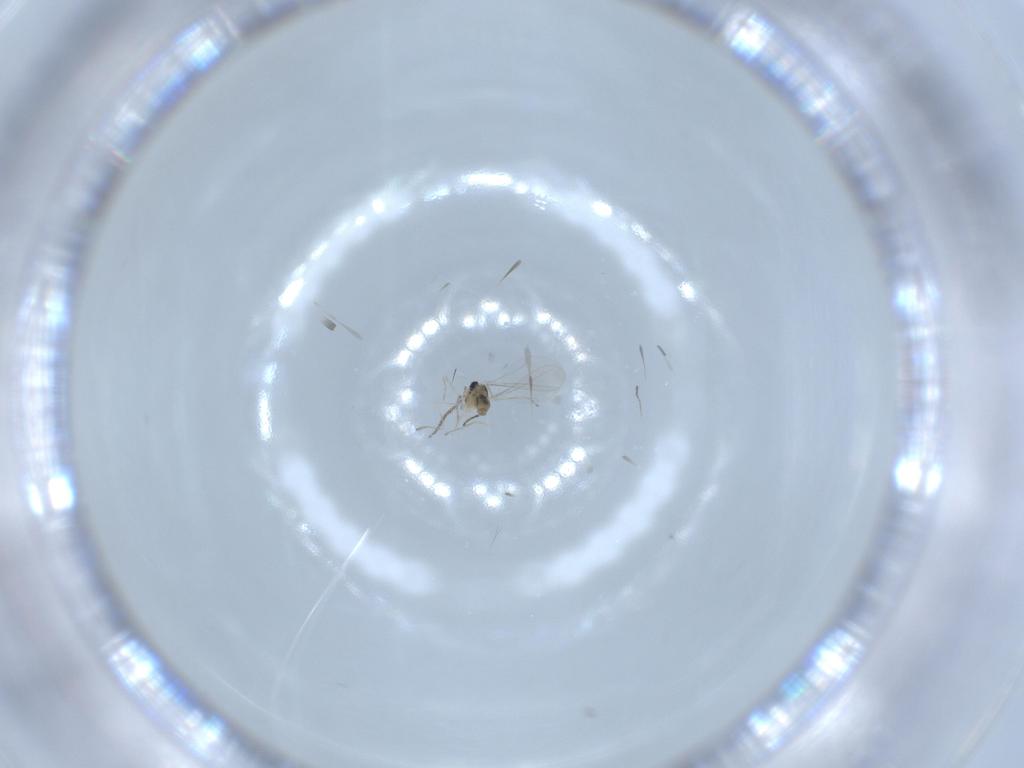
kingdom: Animalia
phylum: Arthropoda
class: Insecta
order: Diptera
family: Cecidomyiidae
